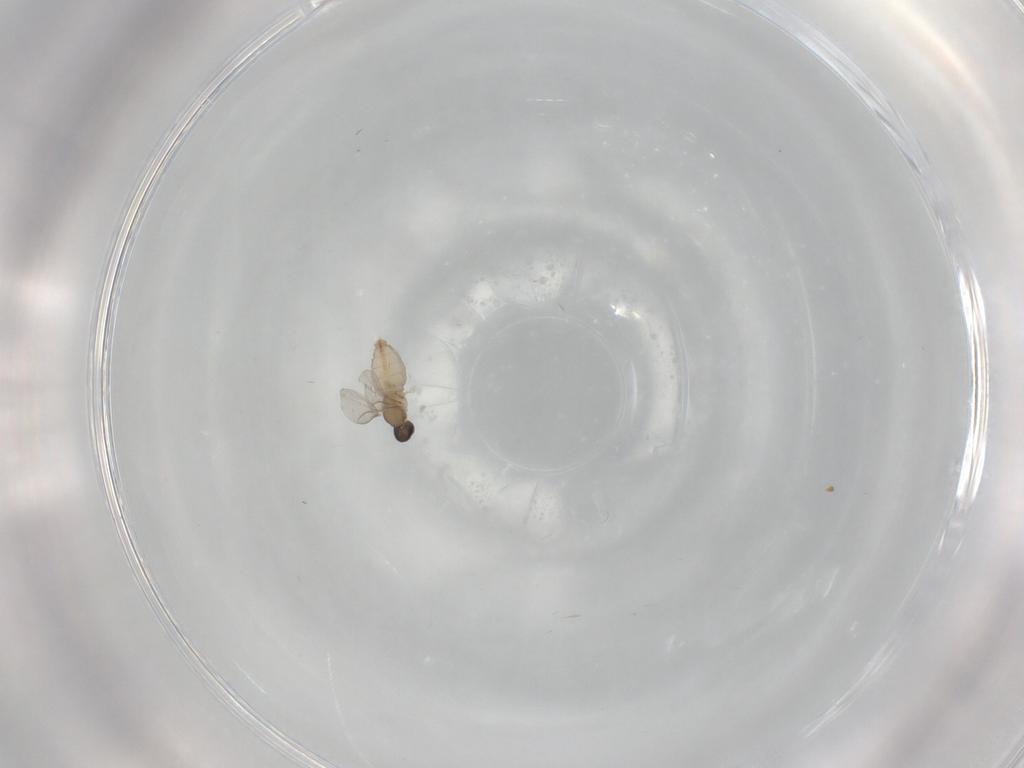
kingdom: Animalia
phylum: Arthropoda
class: Insecta
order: Diptera
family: Cecidomyiidae
